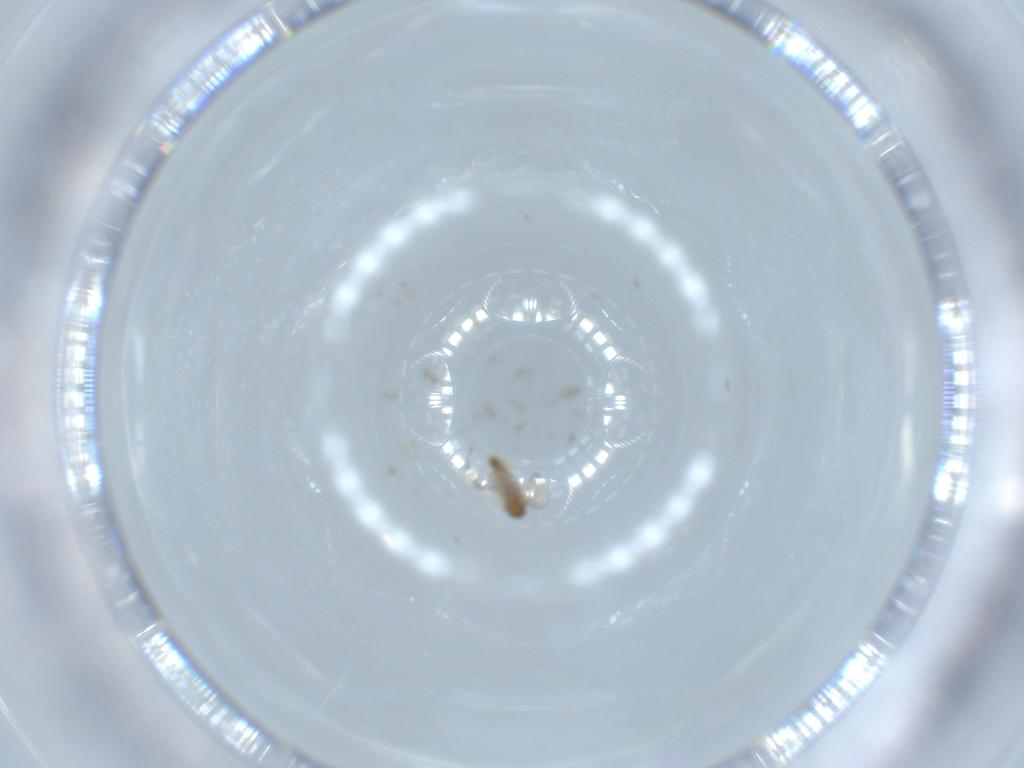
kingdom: Animalia
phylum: Arthropoda
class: Insecta
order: Diptera
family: Chironomidae
